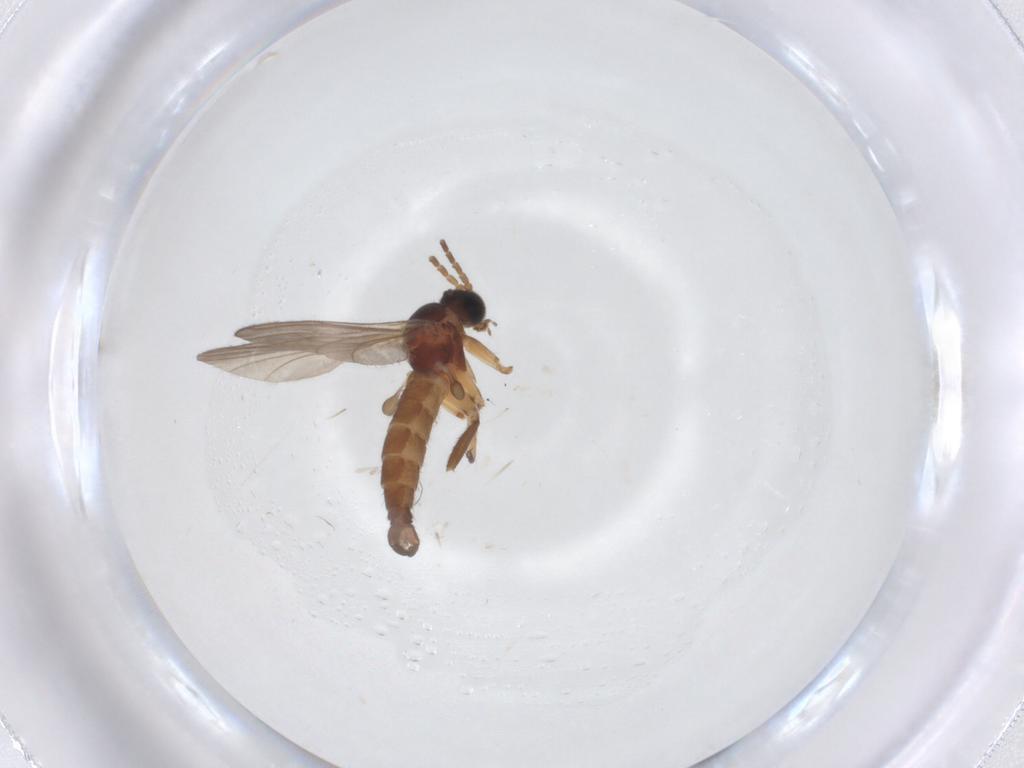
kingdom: Animalia
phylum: Arthropoda
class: Insecta
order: Diptera
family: Sciaridae
